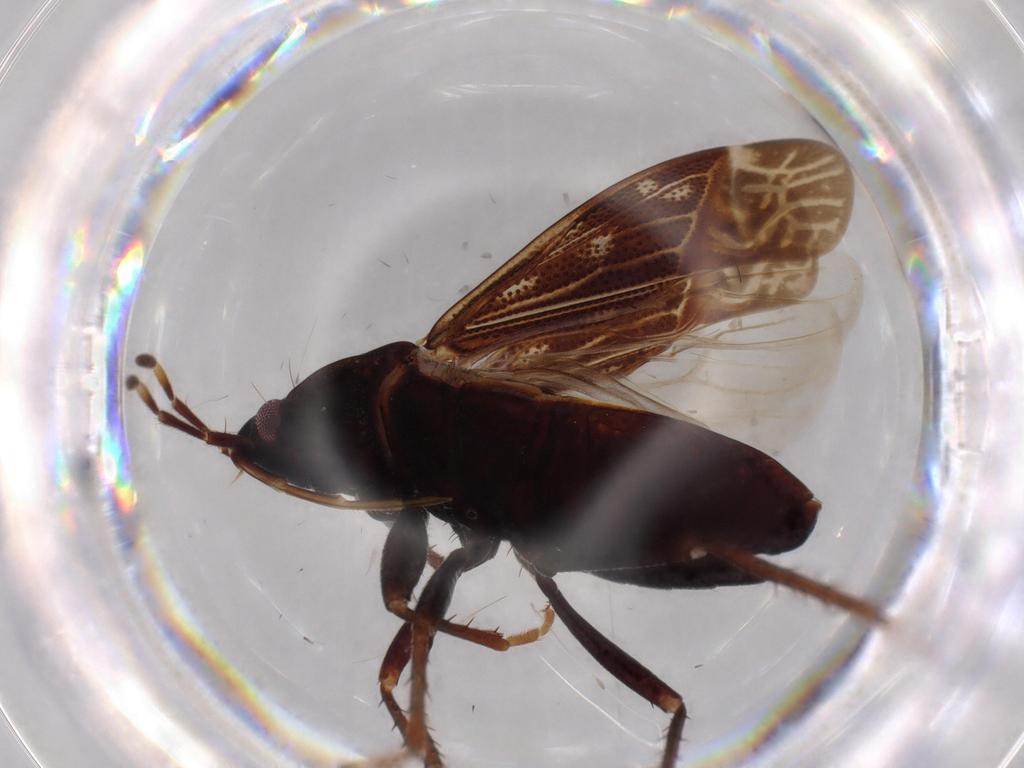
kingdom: Animalia
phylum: Arthropoda
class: Insecta
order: Hemiptera
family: Rhyparochromidae
